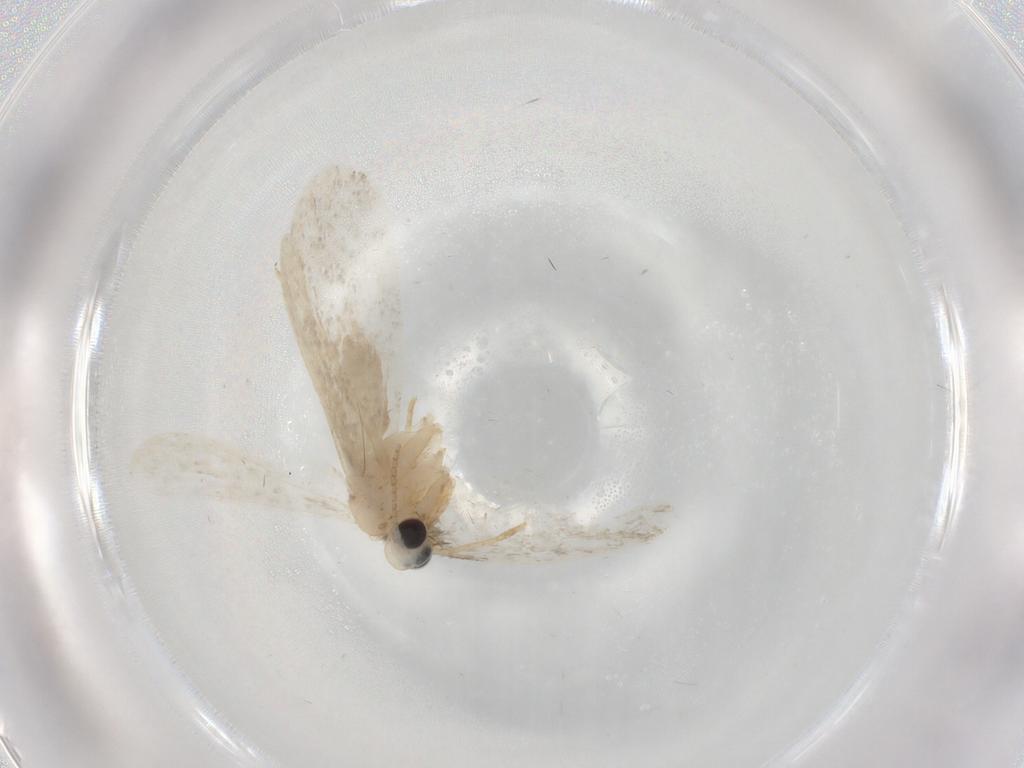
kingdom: Animalia
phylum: Arthropoda
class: Insecta
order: Lepidoptera
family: Psychidae
